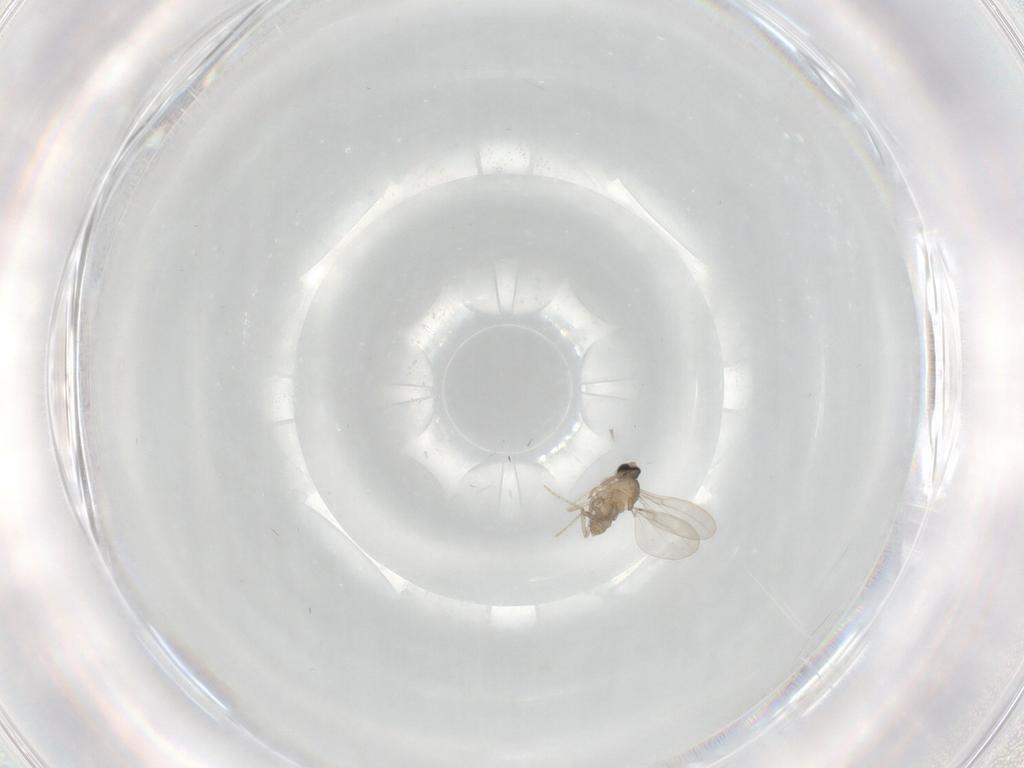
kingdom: Animalia
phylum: Arthropoda
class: Insecta
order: Diptera
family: Cecidomyiidae
